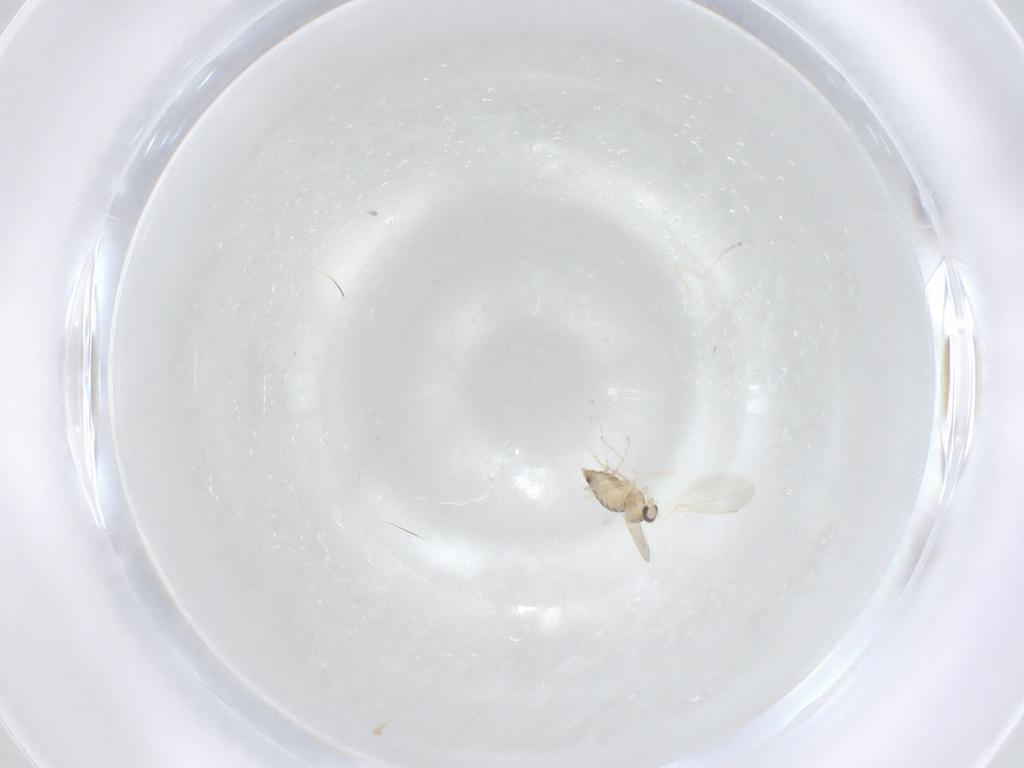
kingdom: Animalia
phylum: Arthropoda
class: Insecta
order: Diptera
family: Cecidomyiidae
